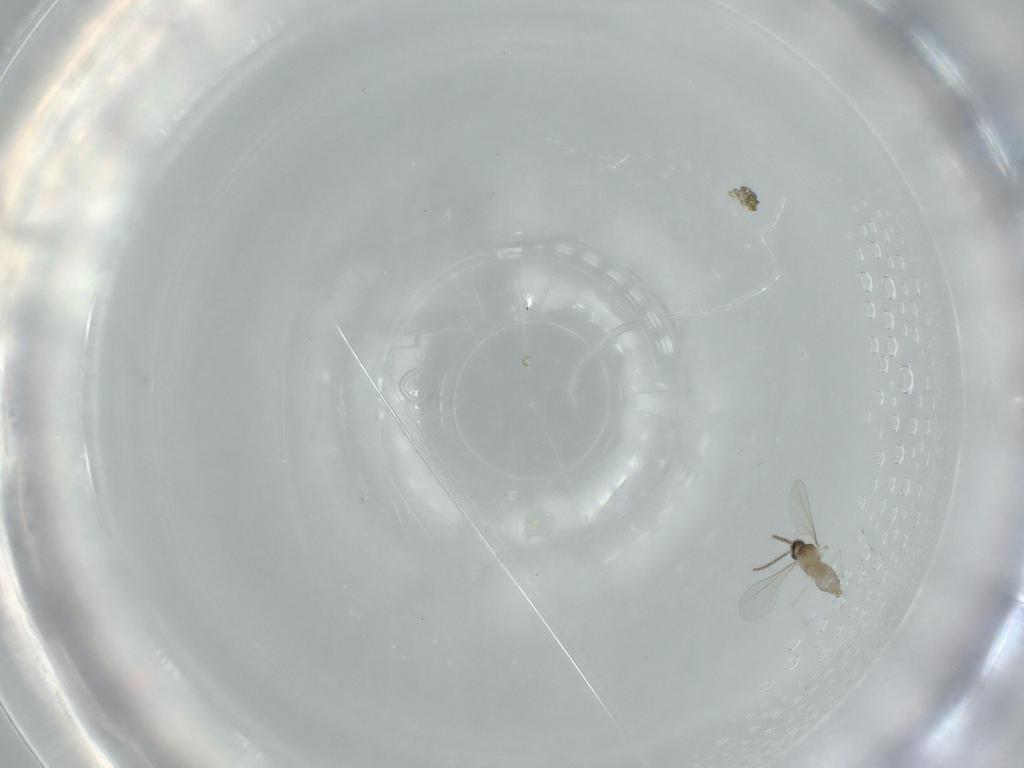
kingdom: Animalia
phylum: Arthropoda
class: Insecta
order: Diptera
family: Cecidomyiidae
